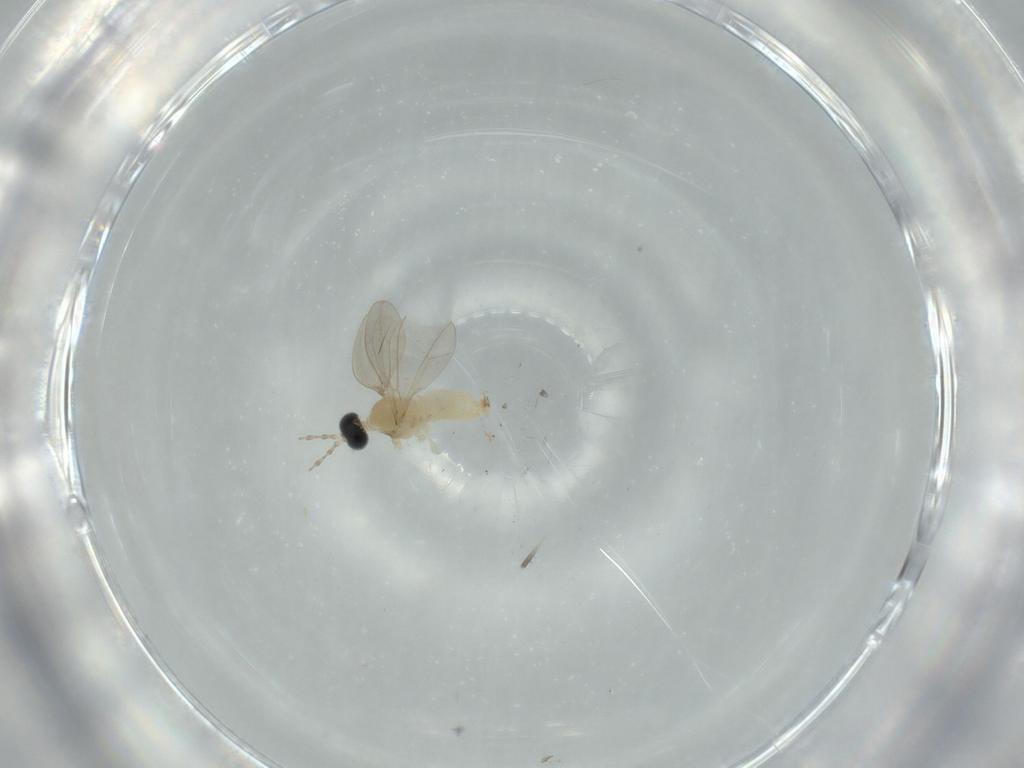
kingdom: Animalia
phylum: Arthropoda
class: Insecta
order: Diptera
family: Cecidomyiidae
